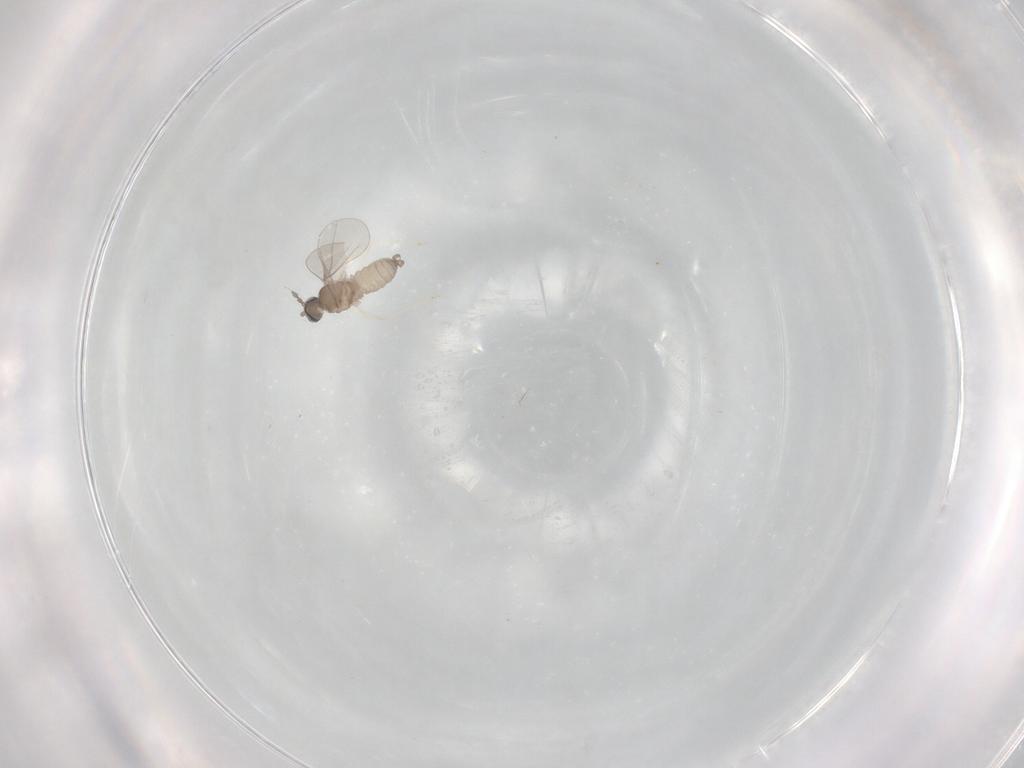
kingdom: Animalia
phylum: Arthropoda
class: Insecta
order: Diptera
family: Cecidomyiidae
